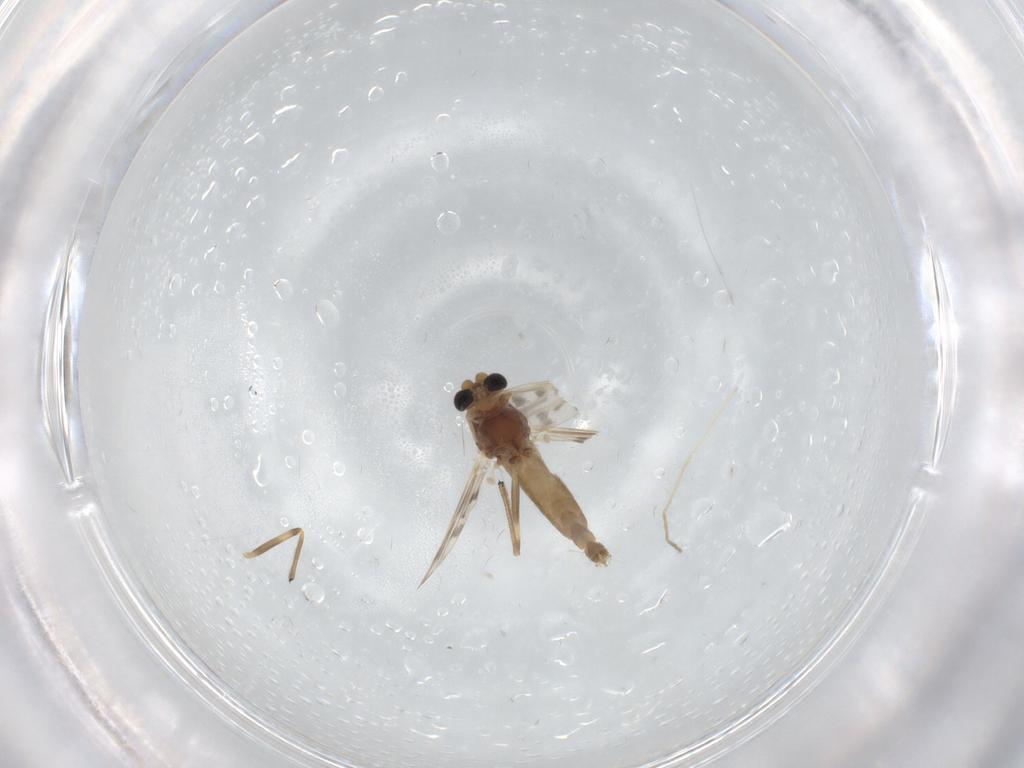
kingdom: Animalia
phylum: Arthropoda
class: Insecta
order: Diptera
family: Chironomidae
